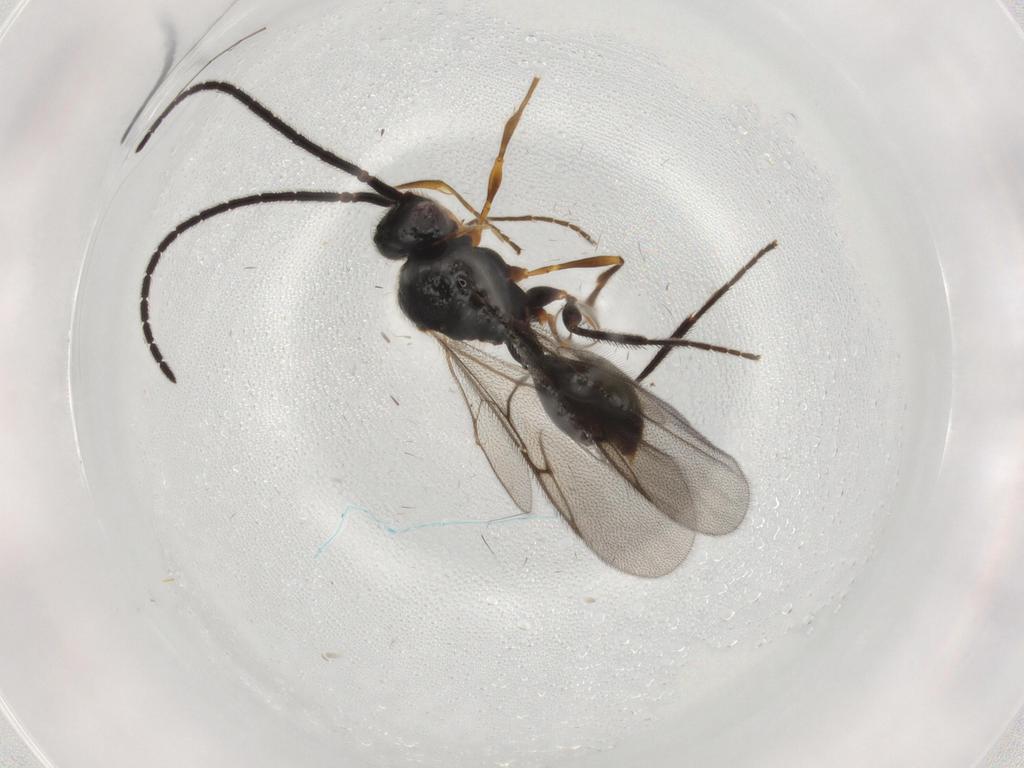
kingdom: Animalia
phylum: Arthropoda
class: Insecta
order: Hymenoptera
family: Diapriidae
